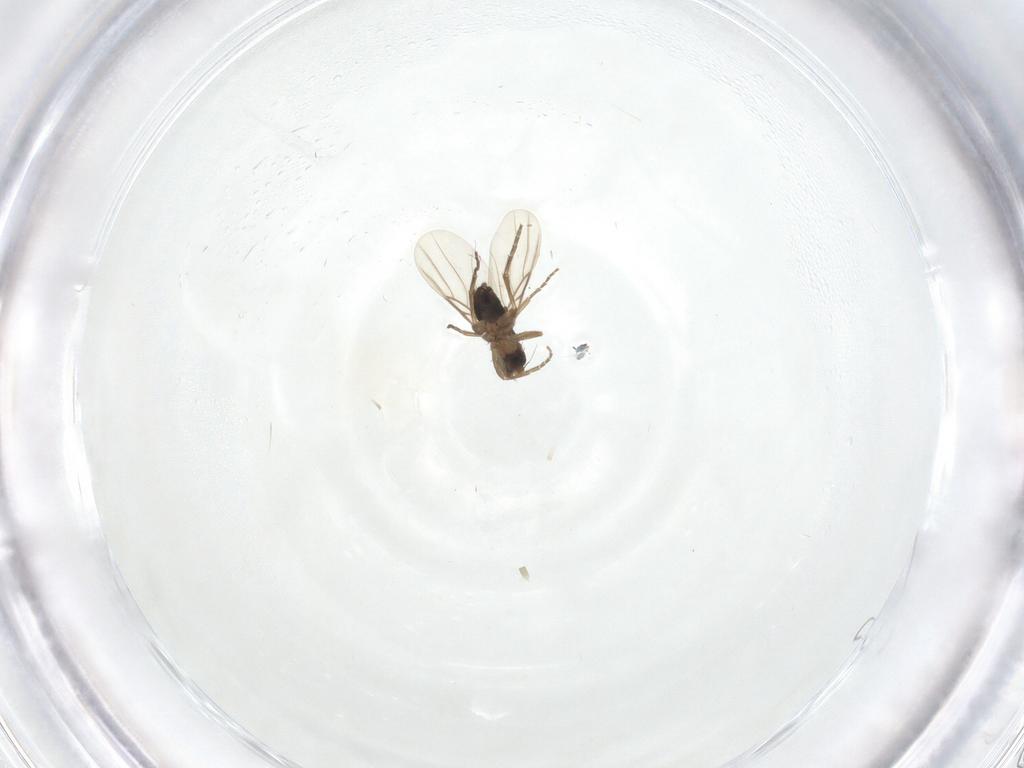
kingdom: Animalia
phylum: Arthropoda
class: Insecta
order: Diptera
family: Phoridae
